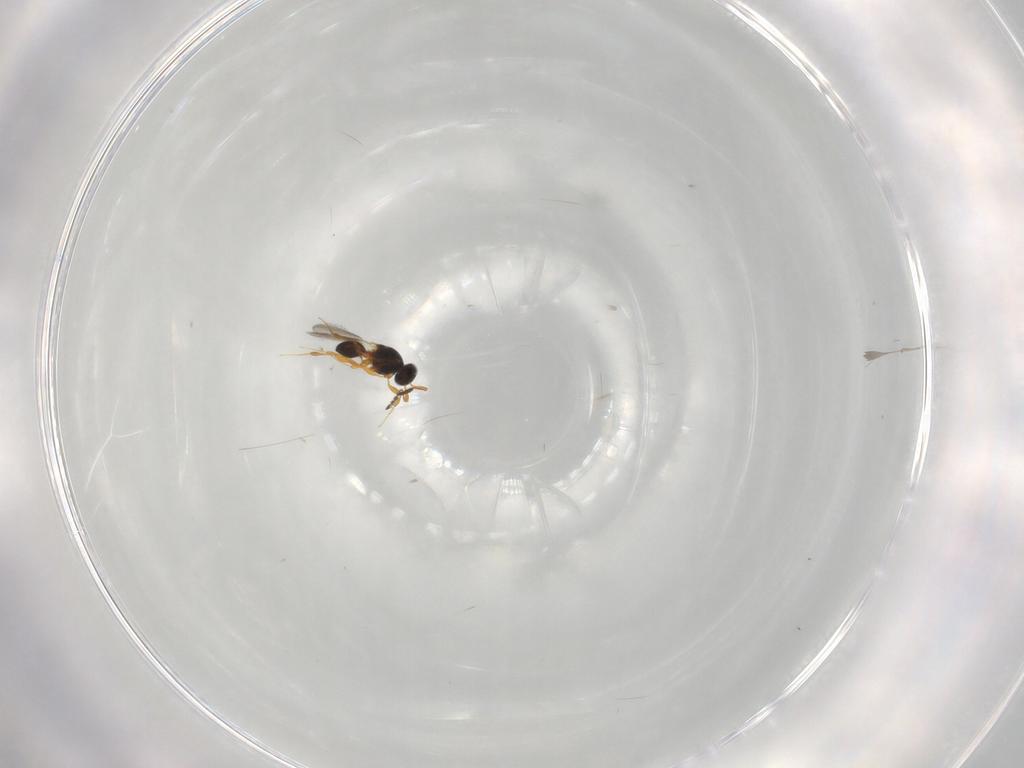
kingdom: Animalia
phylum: Arthropoda
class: Insecta
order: Hymenoptera
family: Platygastridae
